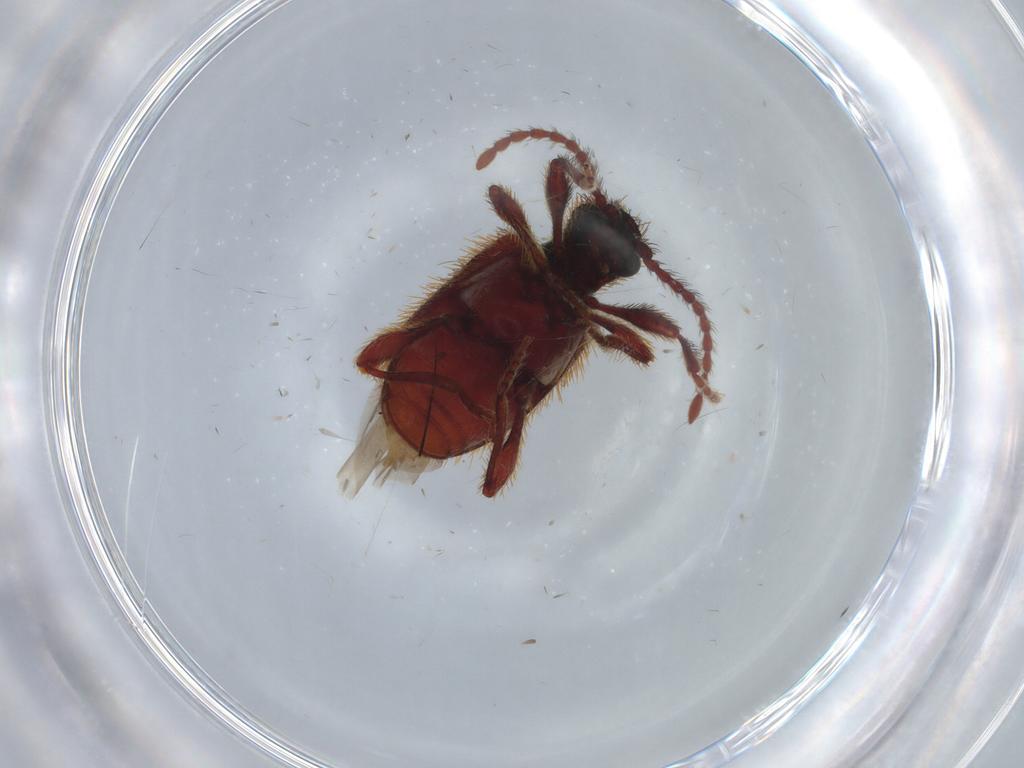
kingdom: Animalia
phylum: Arthropoda
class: Insecta
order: Coleoptera
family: Ptinidae
